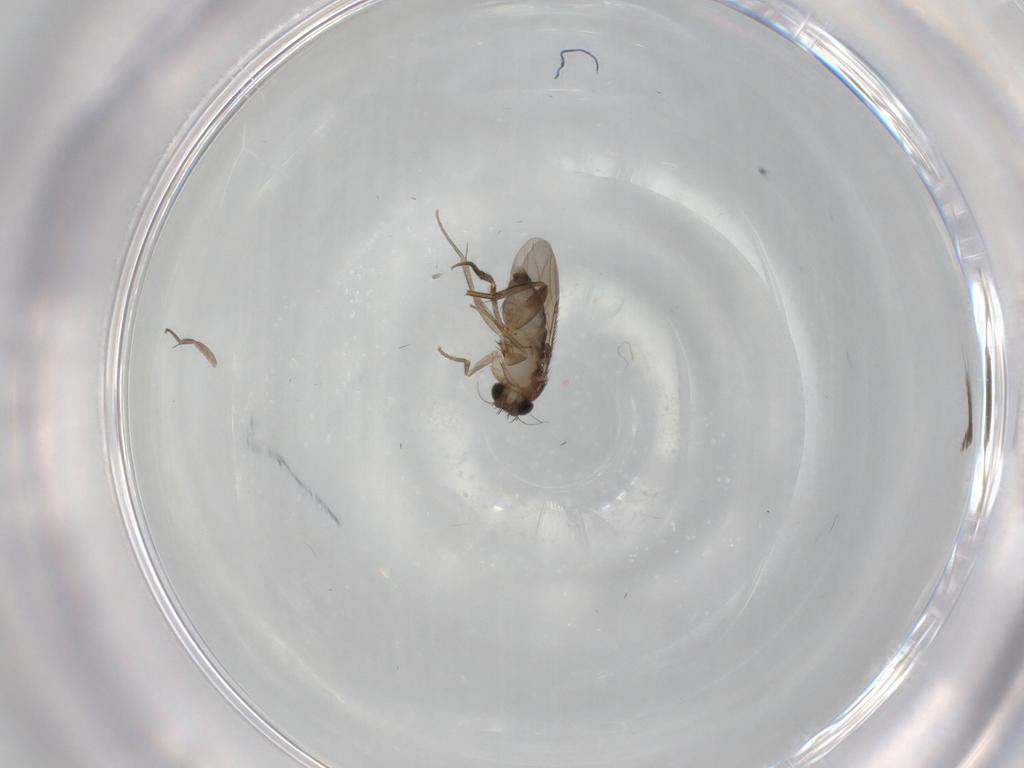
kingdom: Animalia
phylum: Arthropoda
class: Insecta
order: Diptera
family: Phoridae
